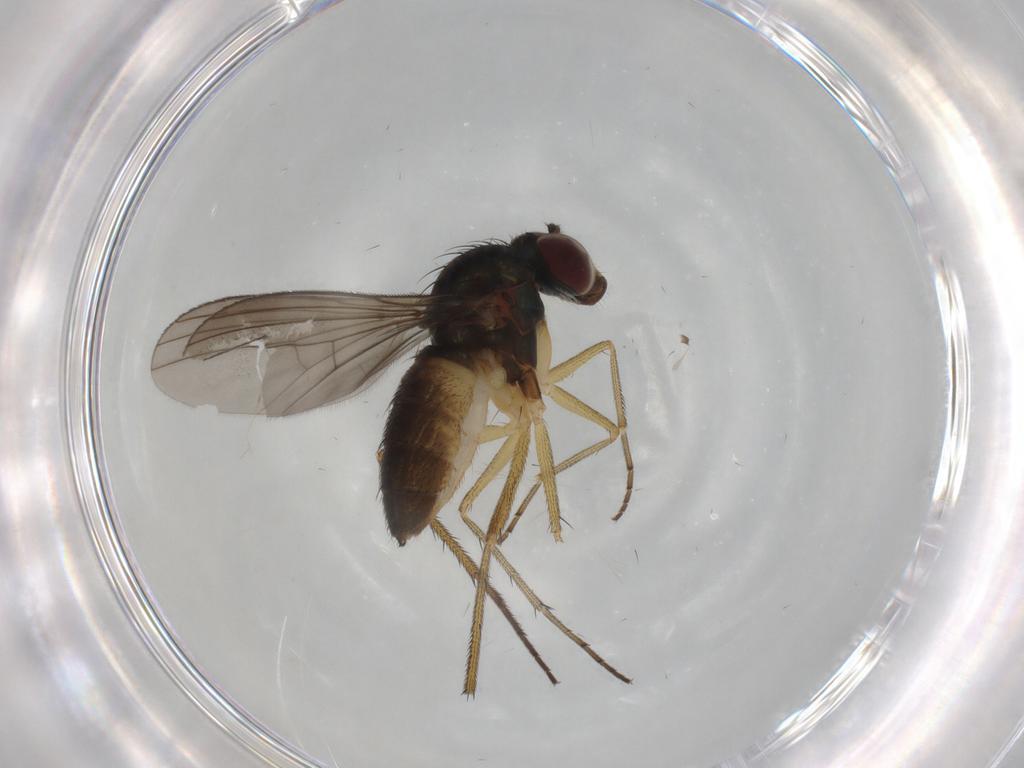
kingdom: Animalia
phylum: Arthropoda
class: Insecta
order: Diptera
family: Dolichopodidae
